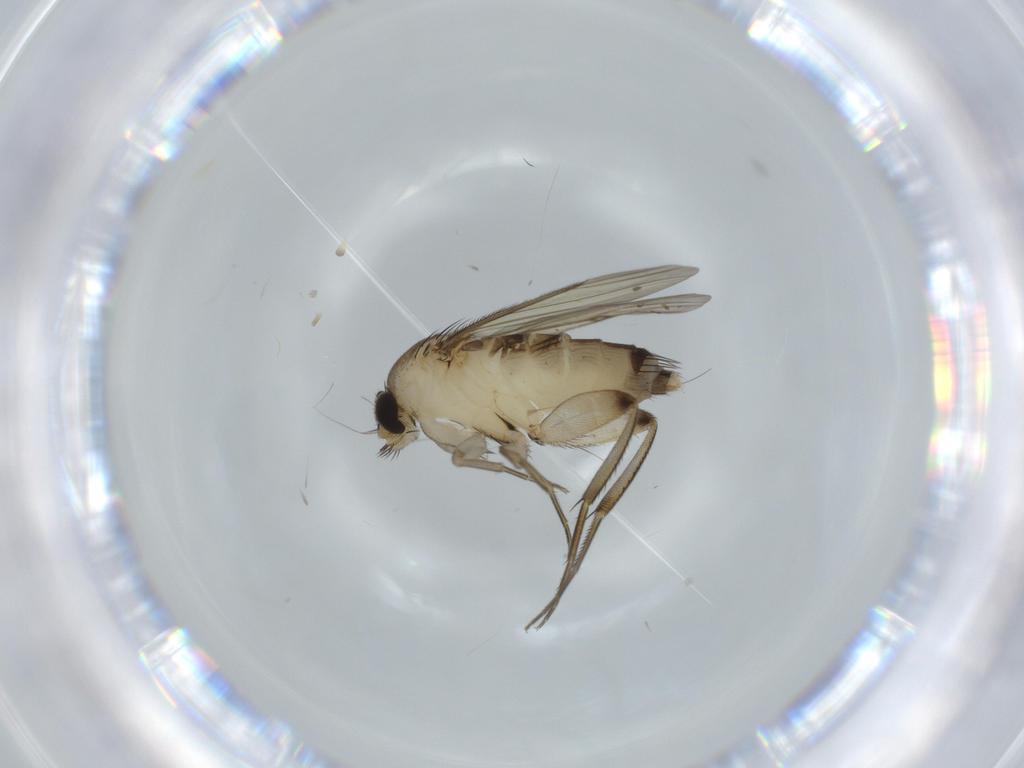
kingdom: Animalia
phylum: Arthropoda
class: Insecta
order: Diptera
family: Phoridae
